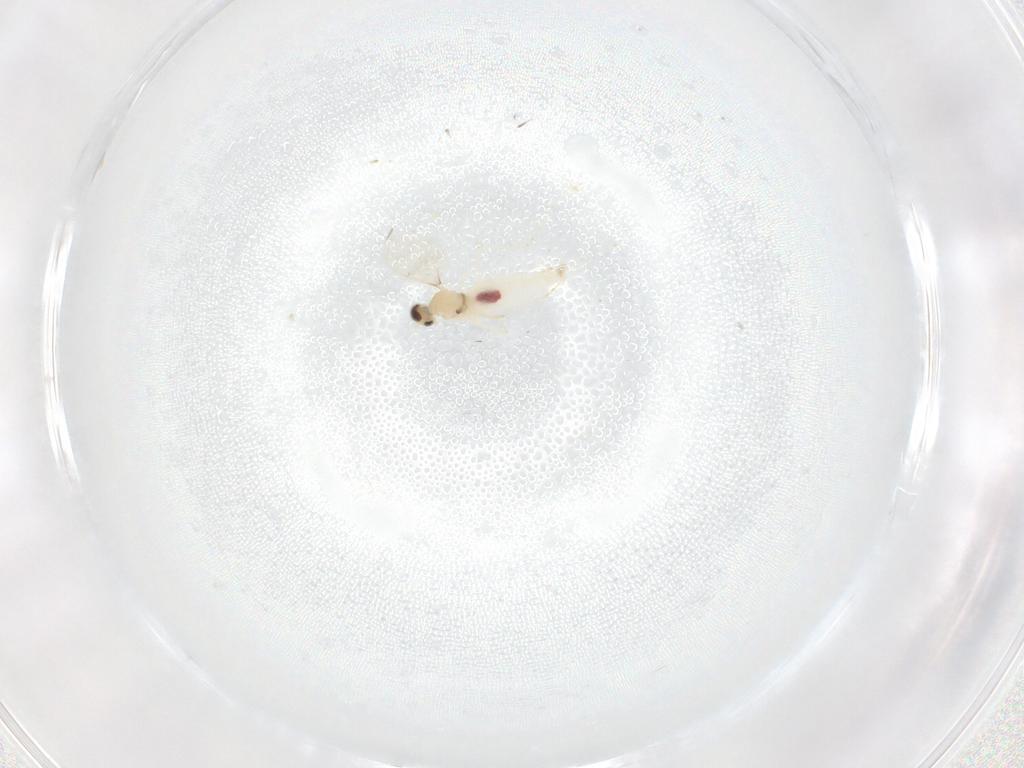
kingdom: Animalia
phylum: Arthropoda
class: Insecta
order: Diptera
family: Cecidomyiidae
